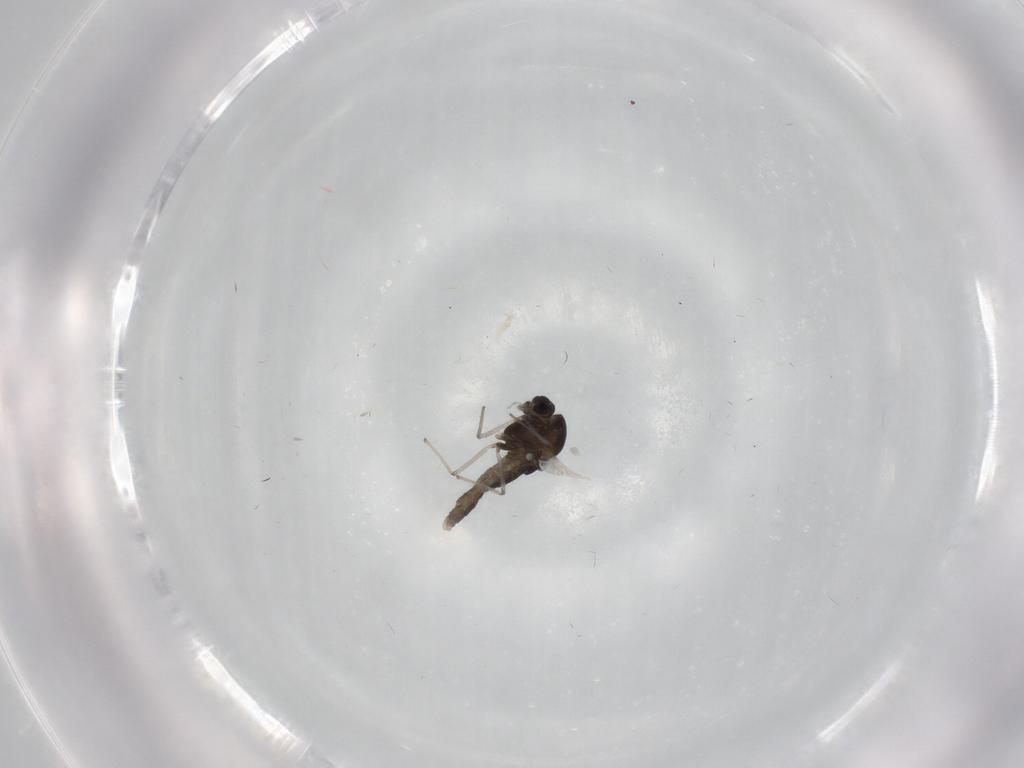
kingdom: Animalia
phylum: Arthropoda
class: Insecta
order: Diptera
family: Chironomidae
